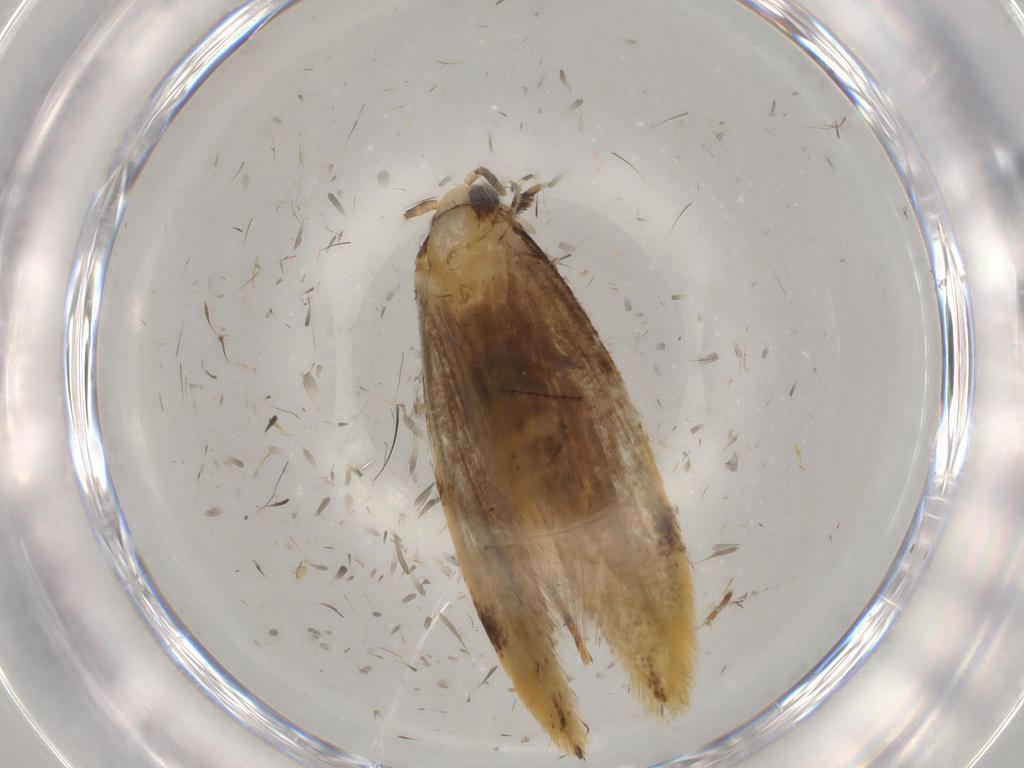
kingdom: Animalia
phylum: Arthropoda
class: Insecta
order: Lepidoptera
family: Tineidae
